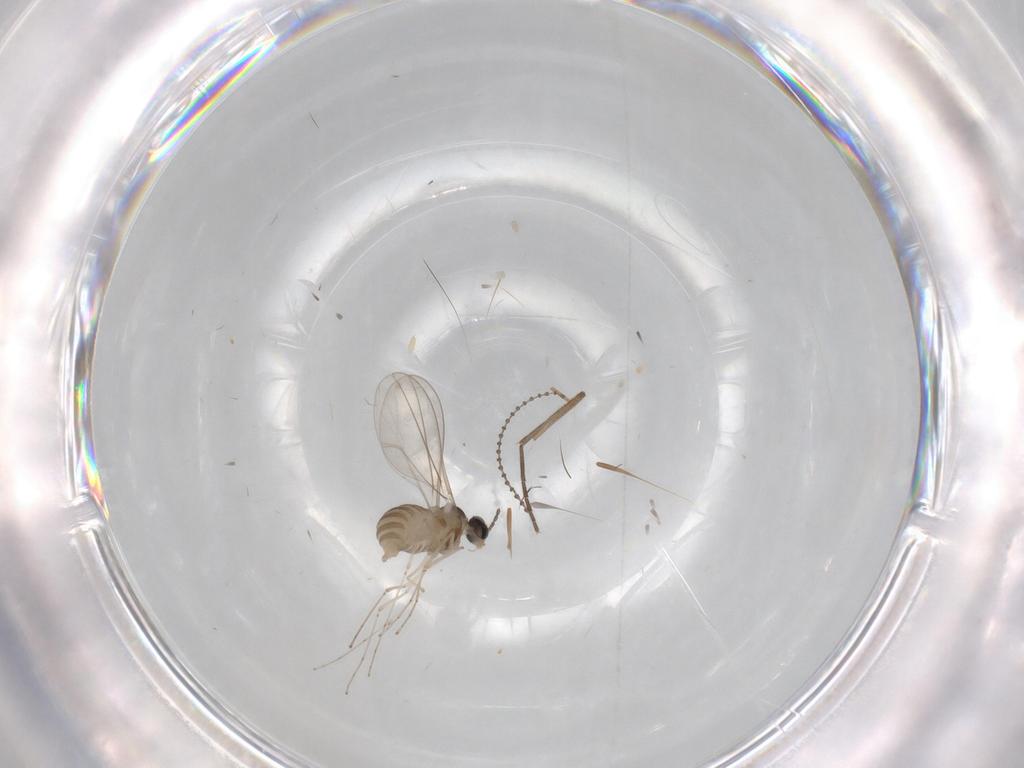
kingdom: Animalia
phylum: Arthropoda
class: Insecta
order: Diptera
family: Cecidomyiidae
